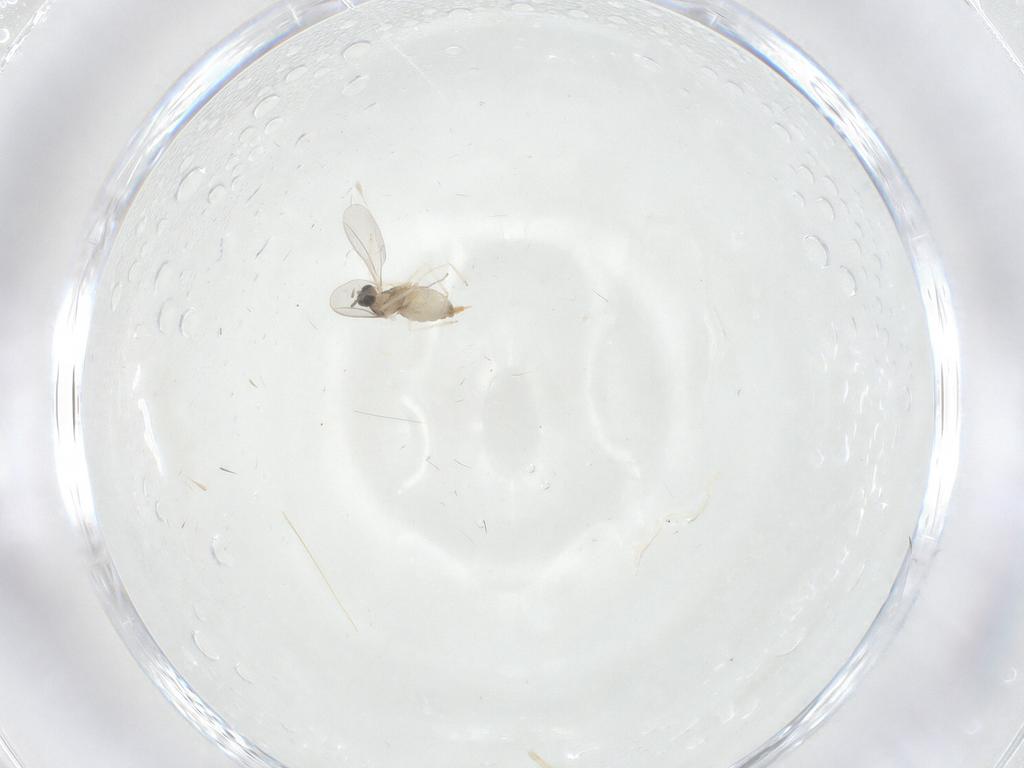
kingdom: Animalia
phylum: Arthropoda
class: Insecta
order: Diptera
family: Cecidomyiidae
